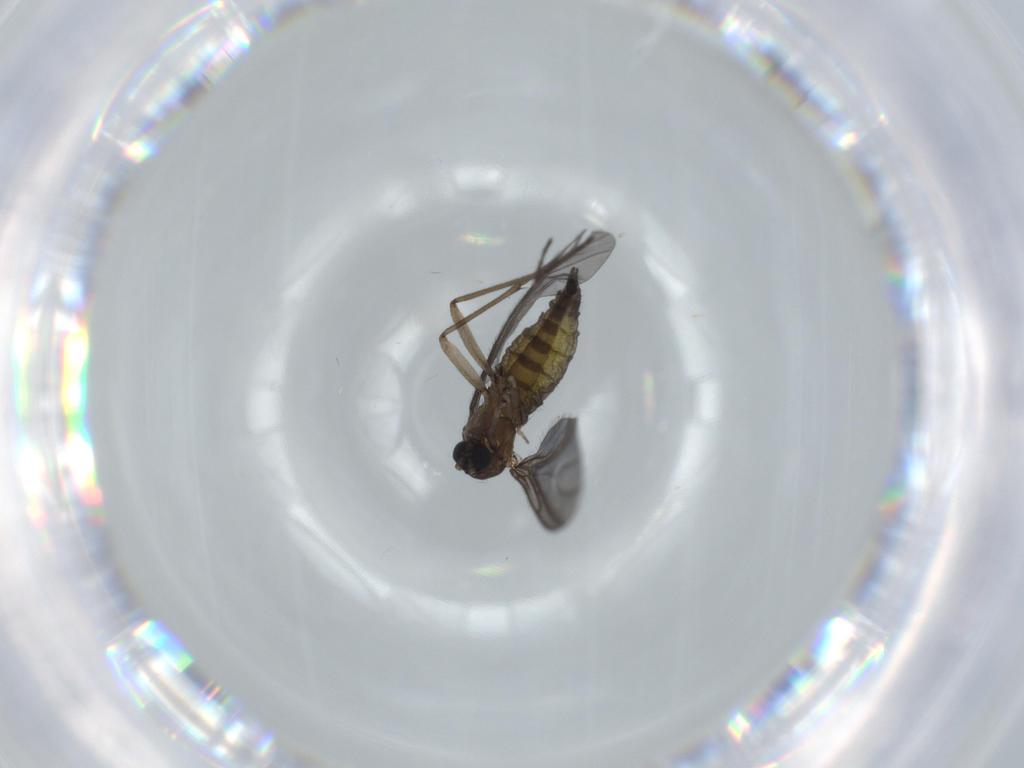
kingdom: Animalia
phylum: Arthropoda
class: Insecta
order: Diptera
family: Sciaridae
